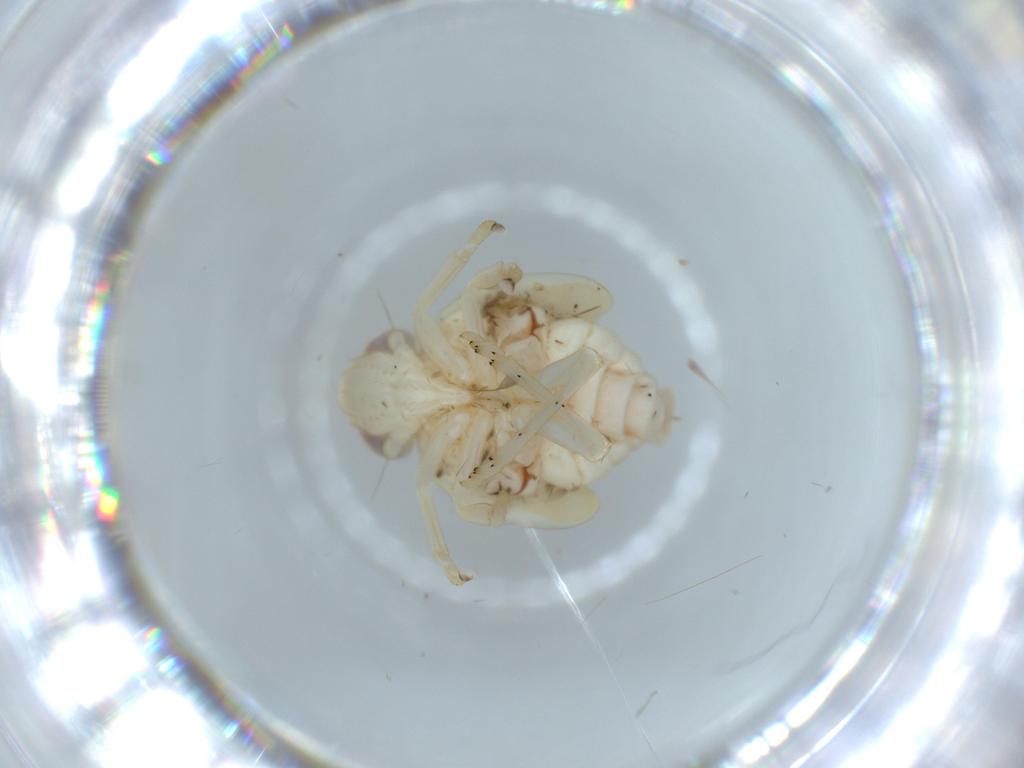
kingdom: Animalia
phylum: Arthropoda
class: Insecta
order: Hemiptera
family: Nogodinidae
